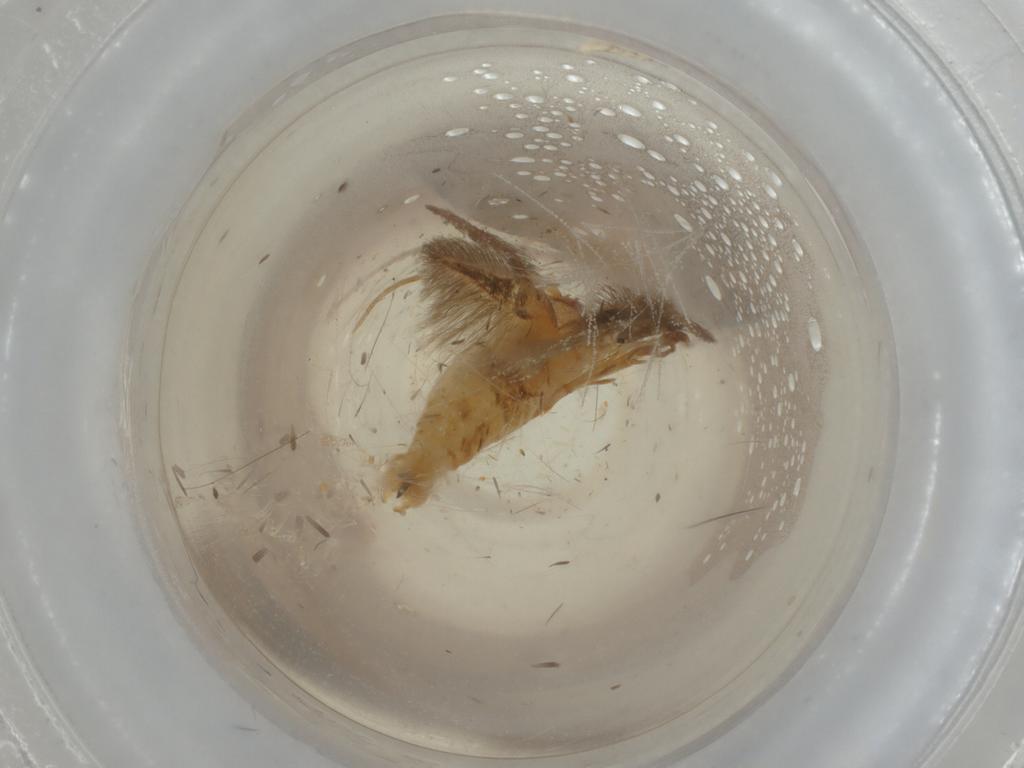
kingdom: Animalia
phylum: Arthropoda
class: Insecta
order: Lepidoptera
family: Tineidae
